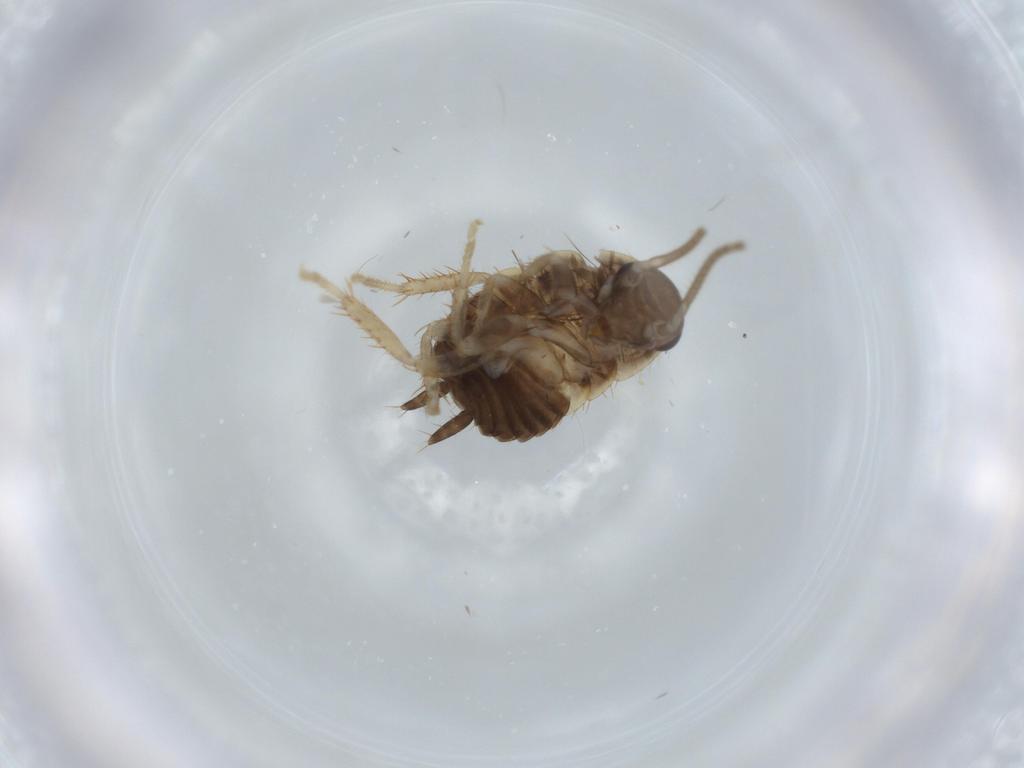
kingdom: Animalia
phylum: Arthropoda
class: Insecta
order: Blattodea
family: Ectobiidae
